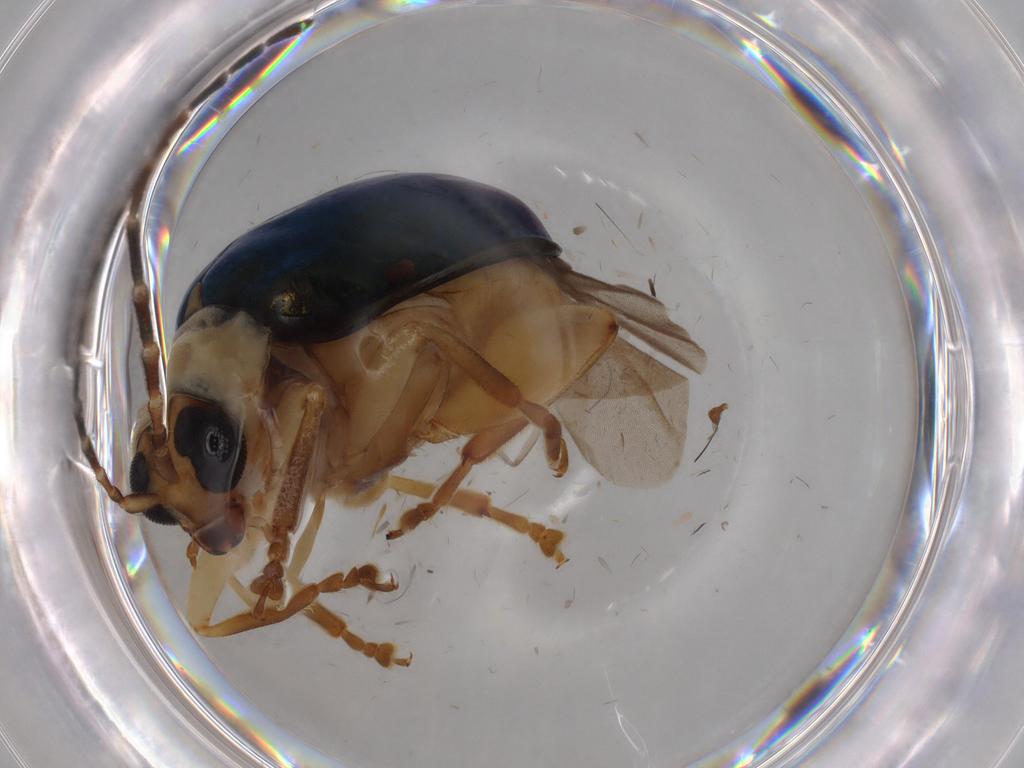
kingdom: Animalia
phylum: Arthropoda
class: Insecta
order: Coleoptera
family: Chrysomelidae
